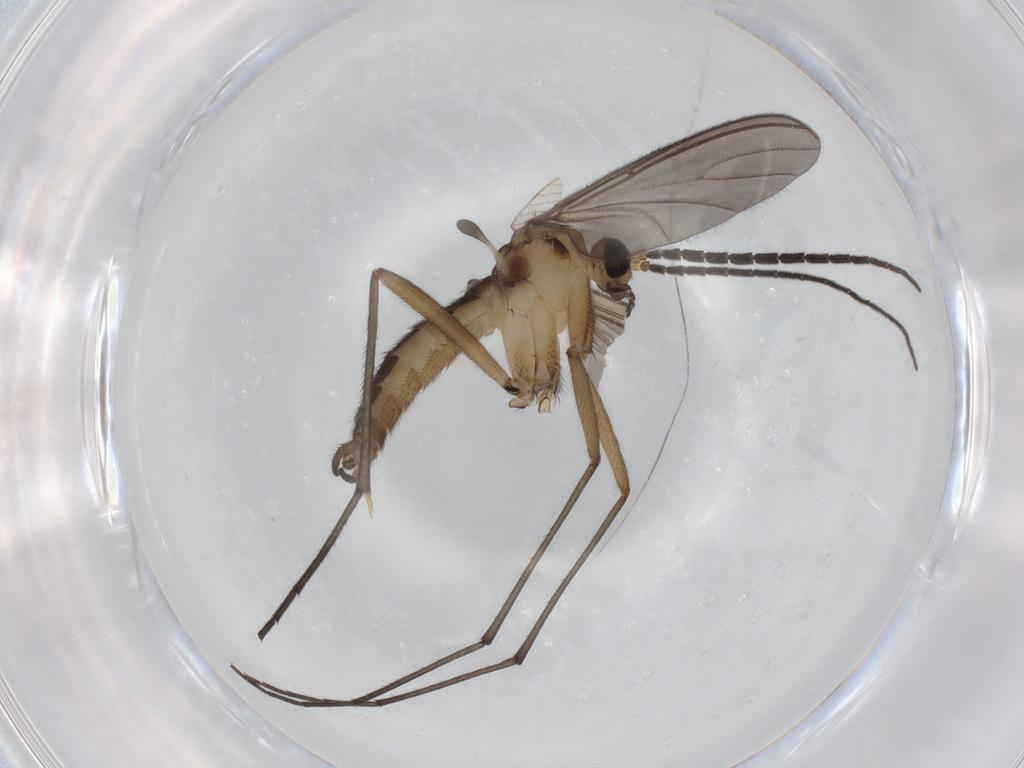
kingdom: Animalia
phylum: Arthropoda
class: Insecta
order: Diptera
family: Sciaridae
